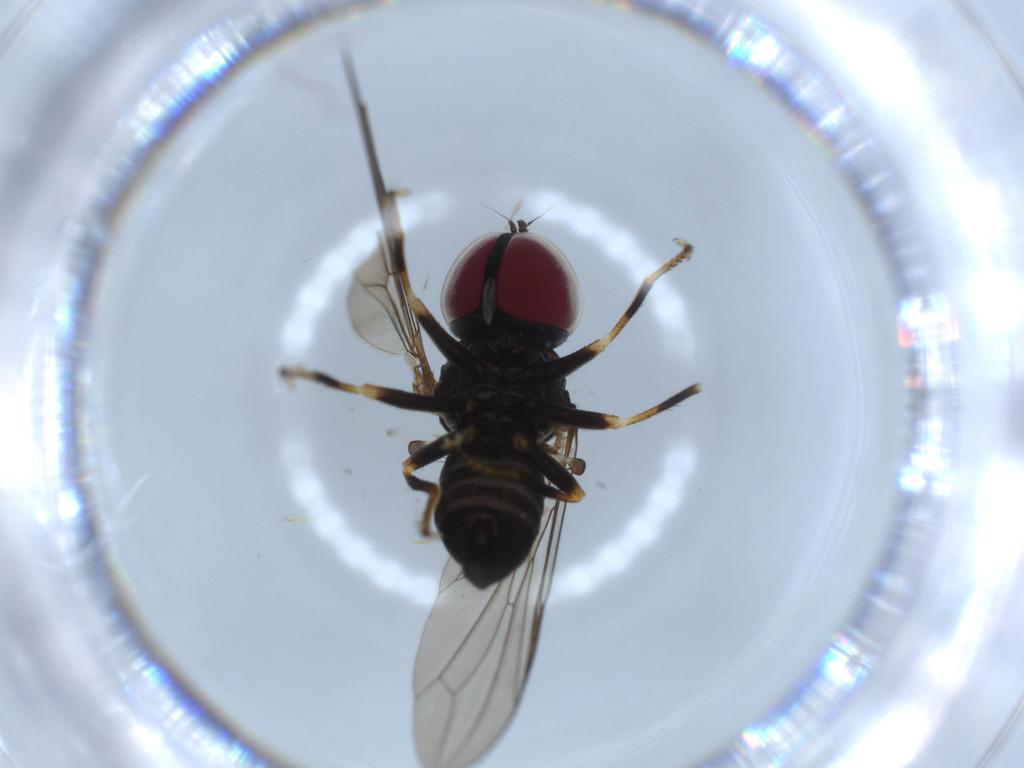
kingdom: Animalia
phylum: Arthropoda
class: Insecta
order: Diptera
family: Pipunculidae
